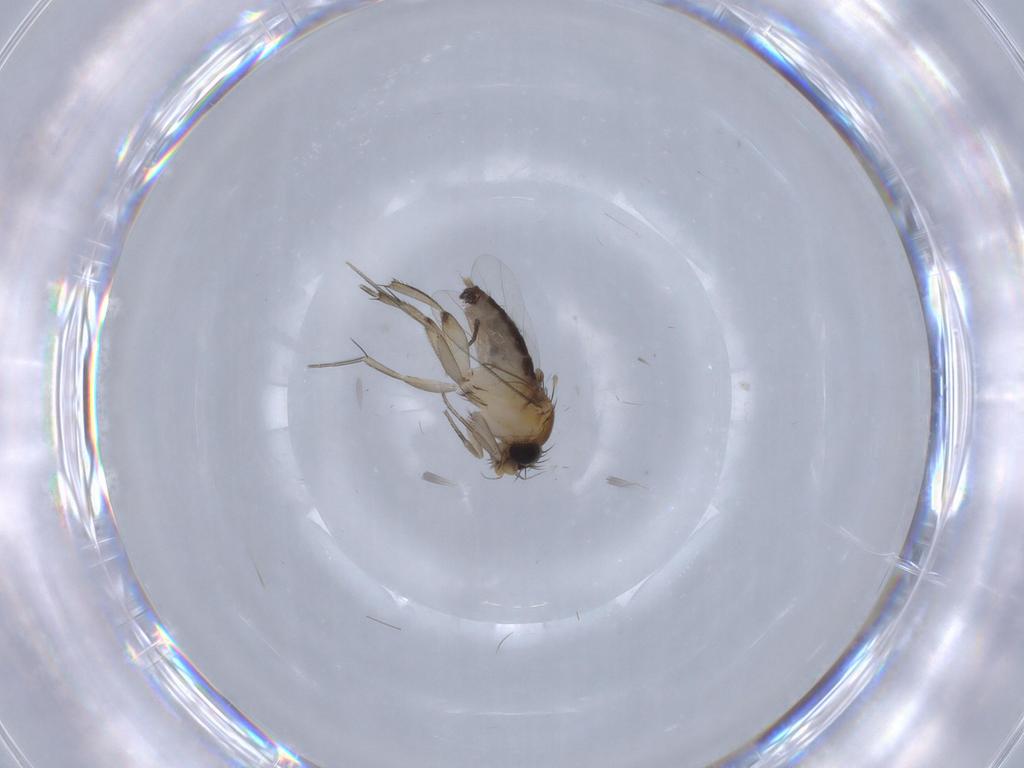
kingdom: Animalia
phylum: Arthropoda
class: Insecta
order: Diptera
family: Phoridae
